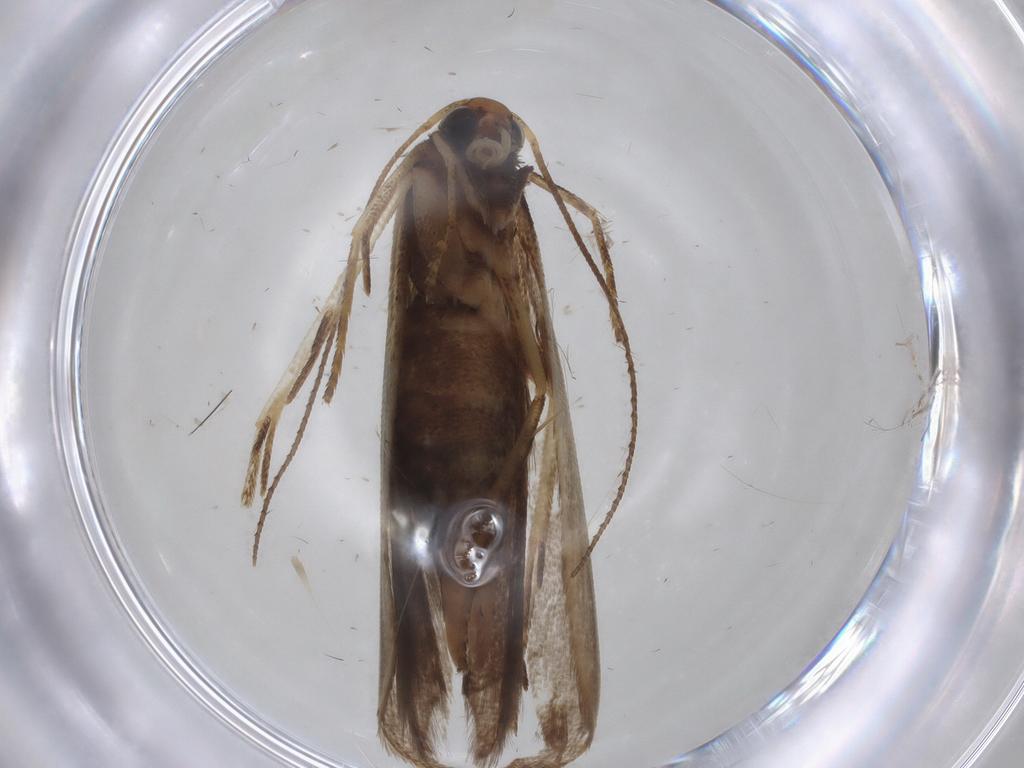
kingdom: Animalia
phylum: Arthropoda
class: Insecta
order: Lepidoptera
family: Gelechiidae
